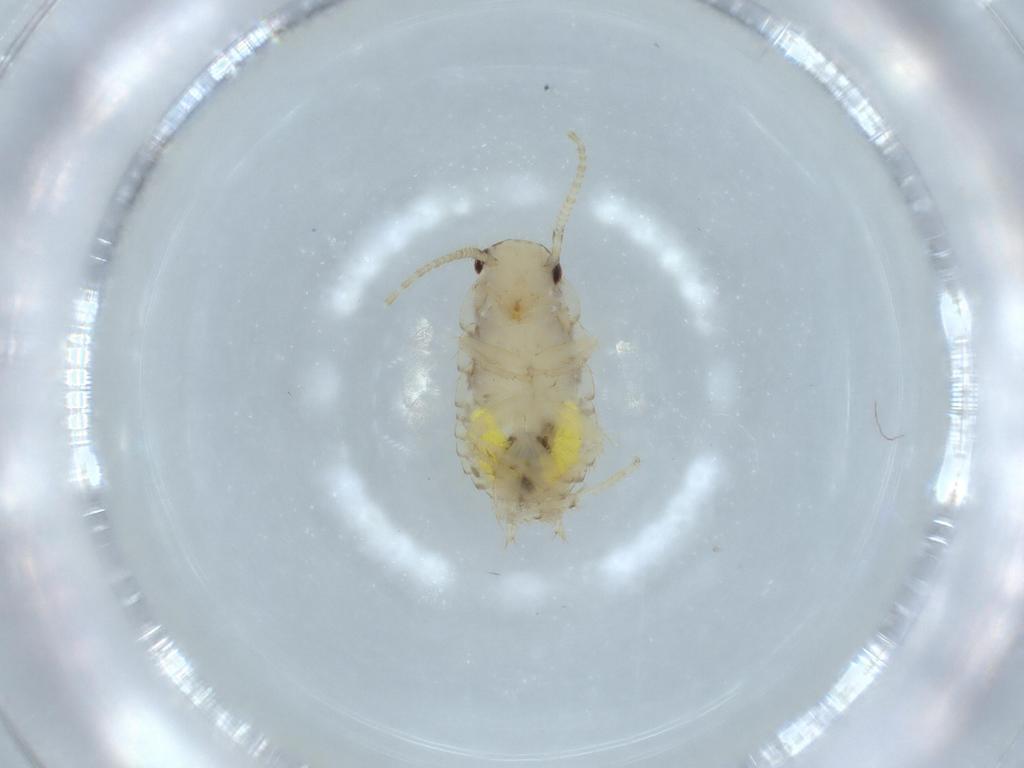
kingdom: Animalia
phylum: Arthropoda
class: Insecta
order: Blattodea
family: Ectobiidae
